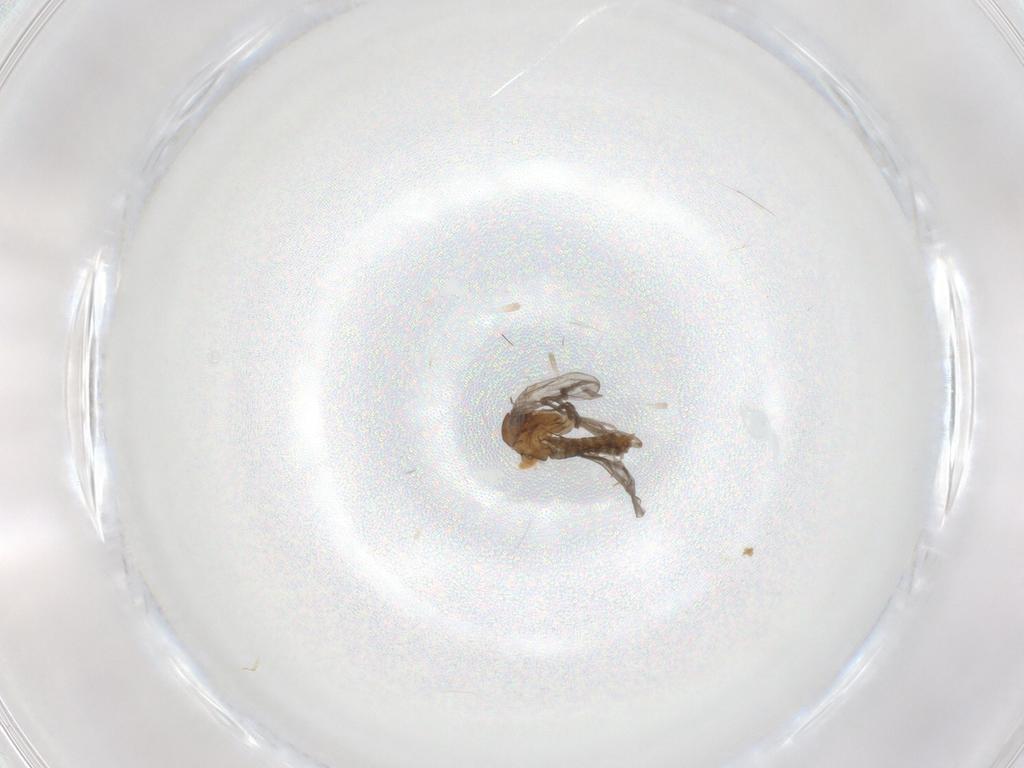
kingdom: Animalia
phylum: Arthropoda
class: Insecta
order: Diptera
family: Chironomidae
